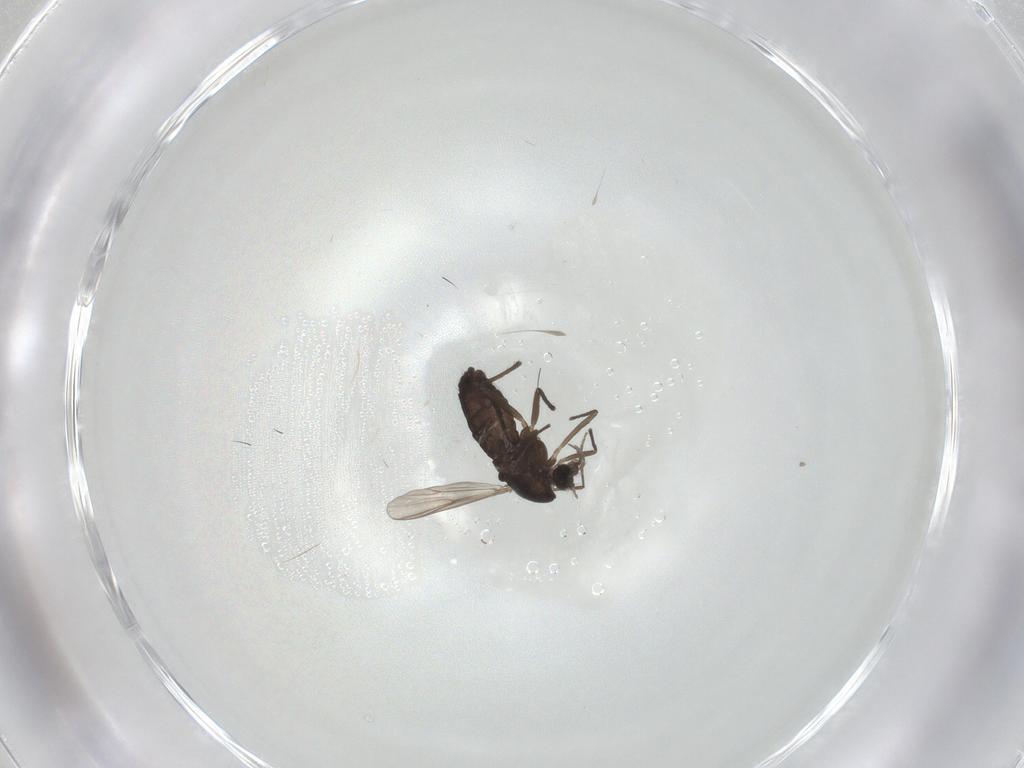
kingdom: Animalia
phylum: Arthropoda
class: Insecta
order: Diptera
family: Chironomidae
